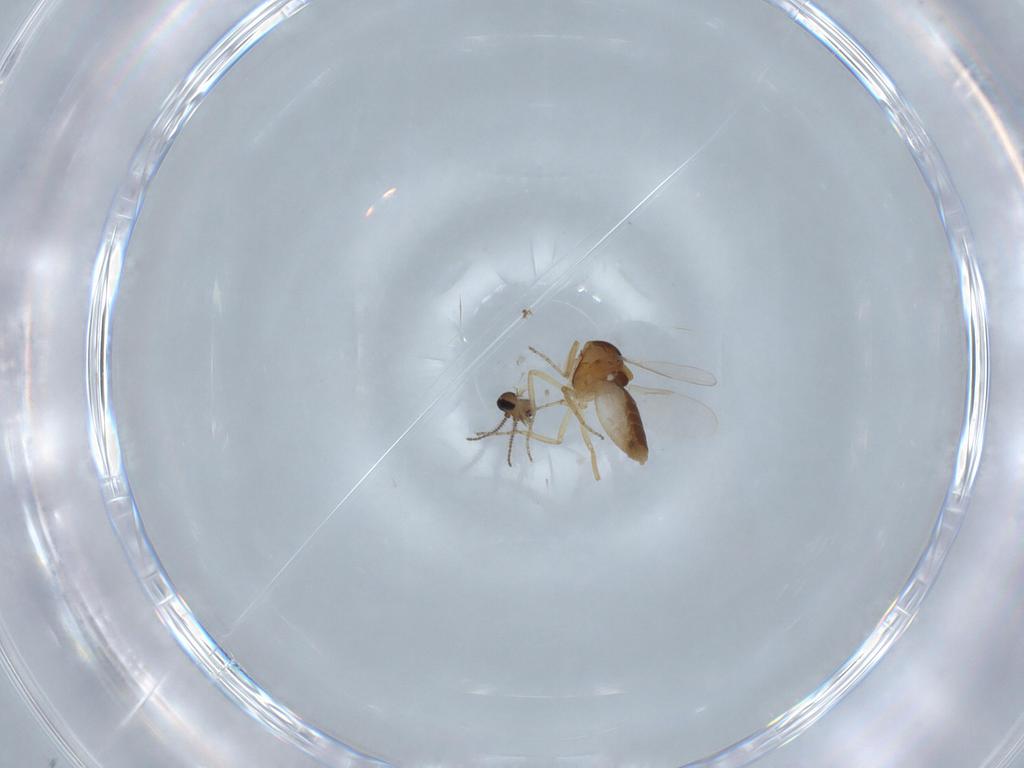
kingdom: Animalia
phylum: Arthropoda
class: Insecta
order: Diptera
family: Ceratopogonidae
